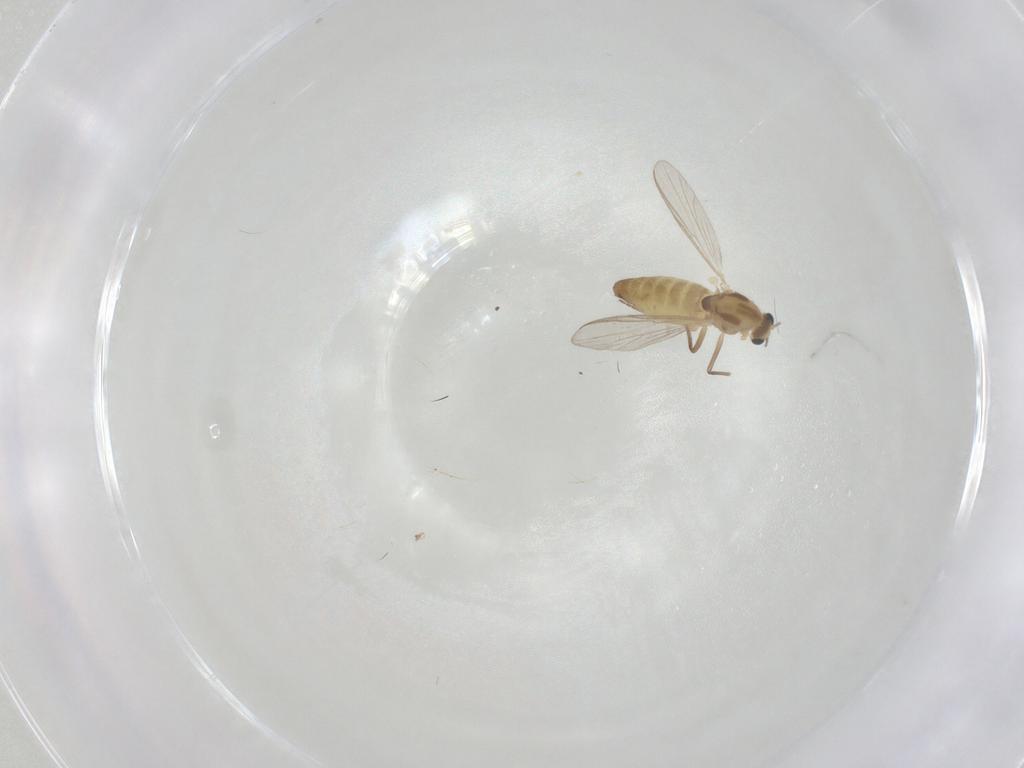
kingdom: Animalia
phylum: Arthropoda
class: Insecta
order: Diptera
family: Chironomidae
